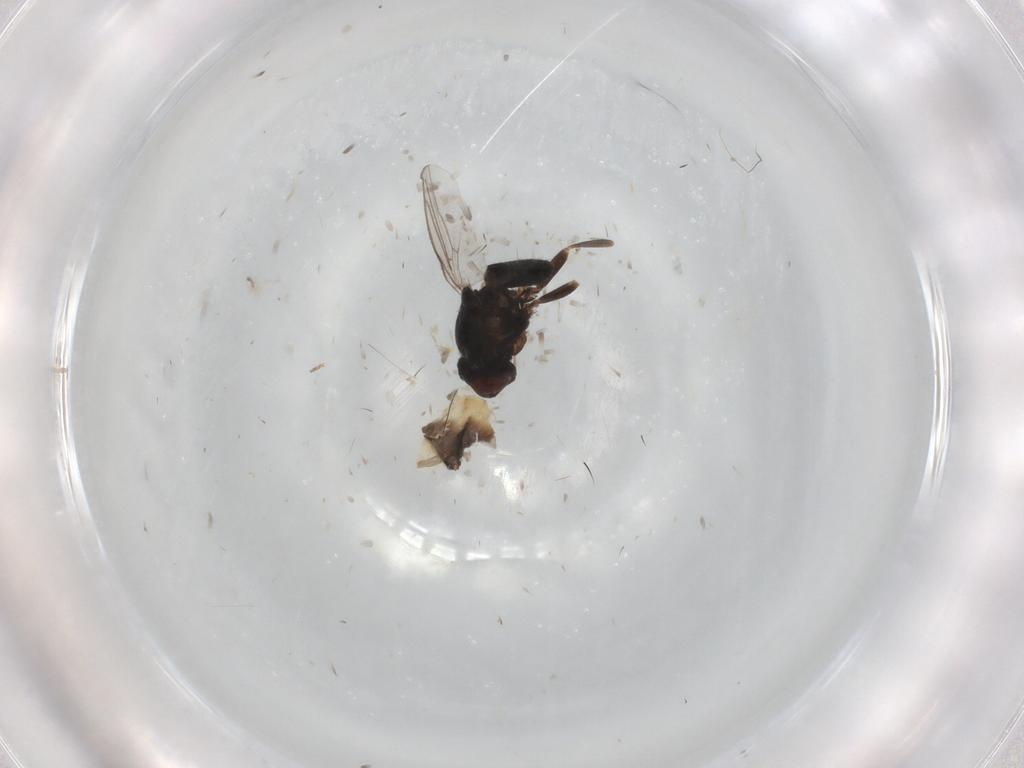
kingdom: Animalia
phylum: Arthropoda
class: Insecta
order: Diptera
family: Chloropidae
